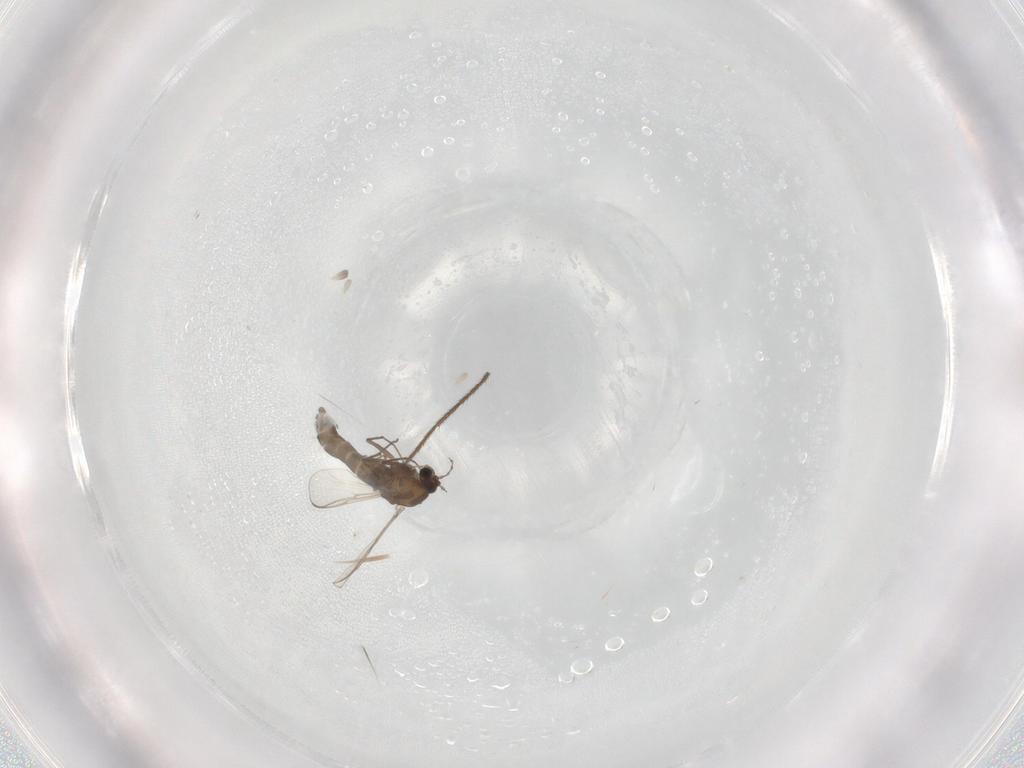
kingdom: Animalia
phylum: Arthropoda
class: Insecta
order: Diptera
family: Chironomidae
